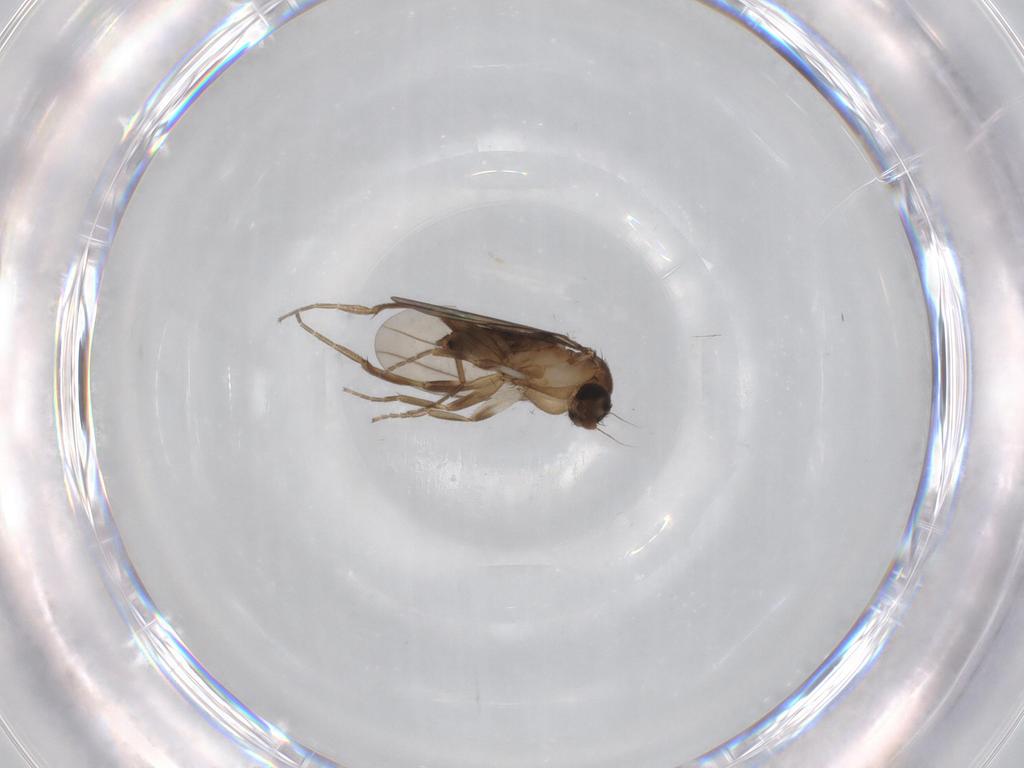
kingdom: Animalia
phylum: Arthropoda
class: Insecta
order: Diptera
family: Limoniidae
